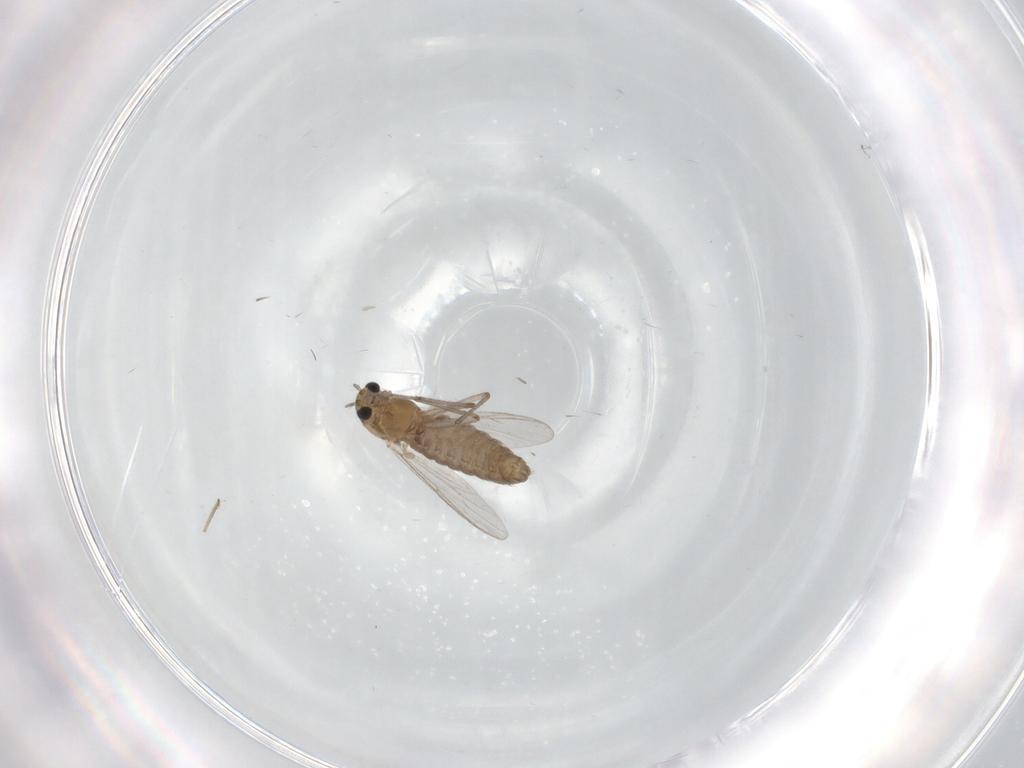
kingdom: Animalia
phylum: Arthropoda
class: Insecta
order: Diptera
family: Chironomidae
